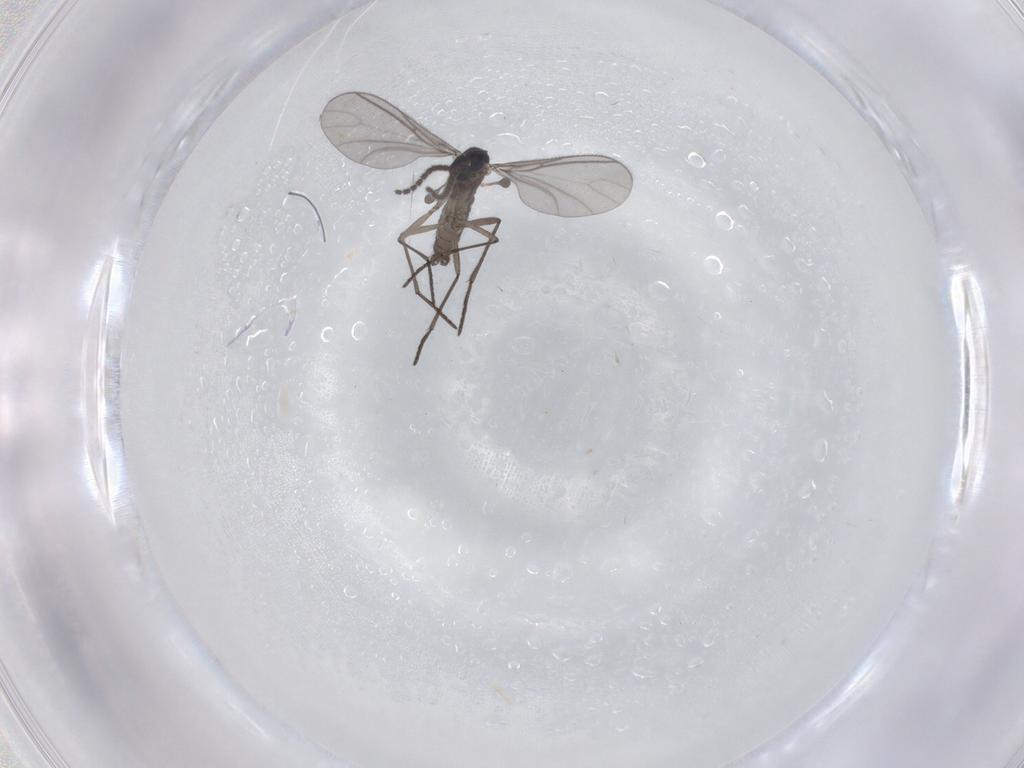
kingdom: Animalia
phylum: Arthropoda
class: Insecta
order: Diptera
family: Sciaridae
